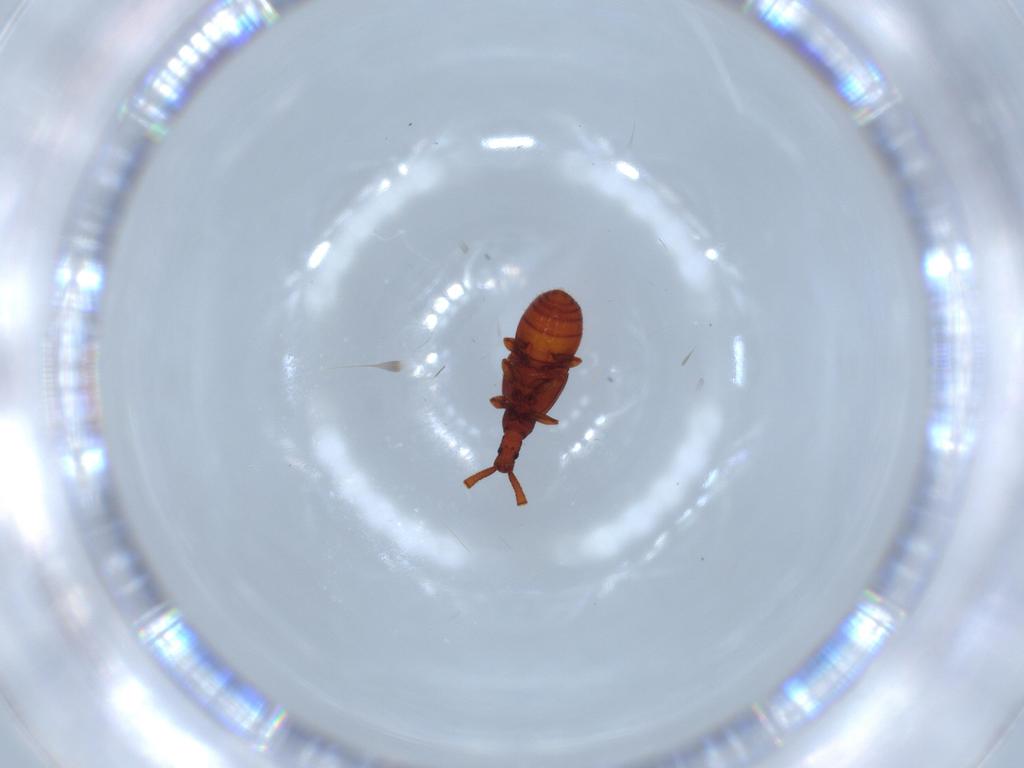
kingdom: Animalia
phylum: Arthropoda
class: Insecta
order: Coleoptera
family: Staphylinidae
